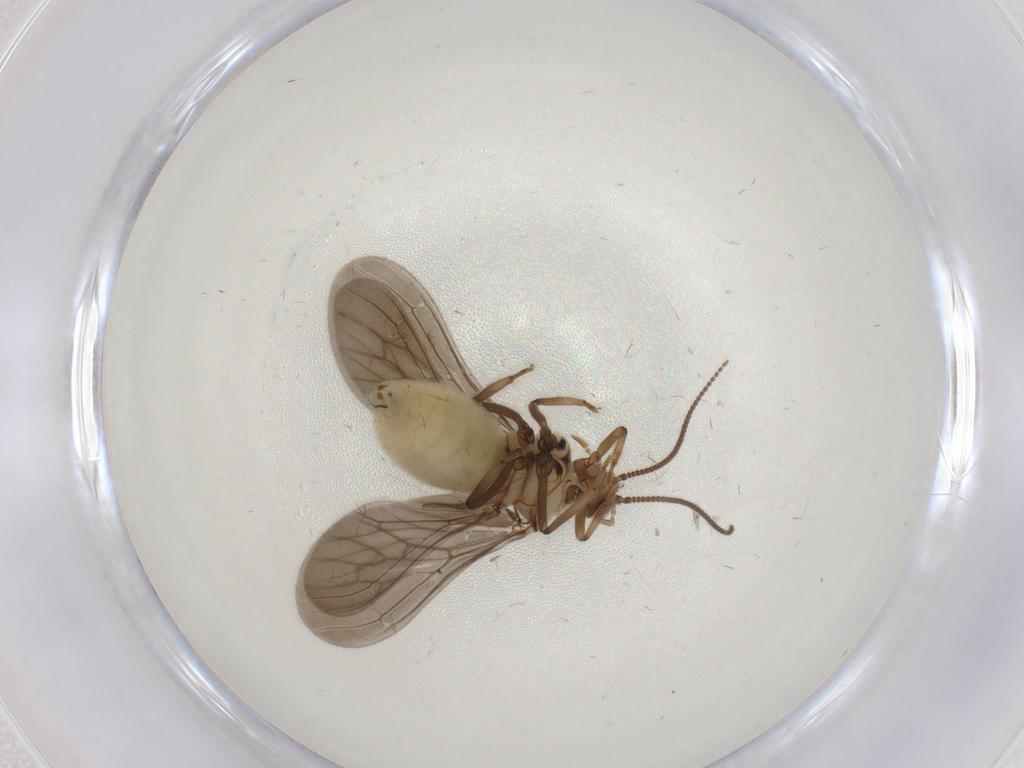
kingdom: Animalia
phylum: Arthropoda
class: Insecta
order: Neuroptera
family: Coniopterygidae
